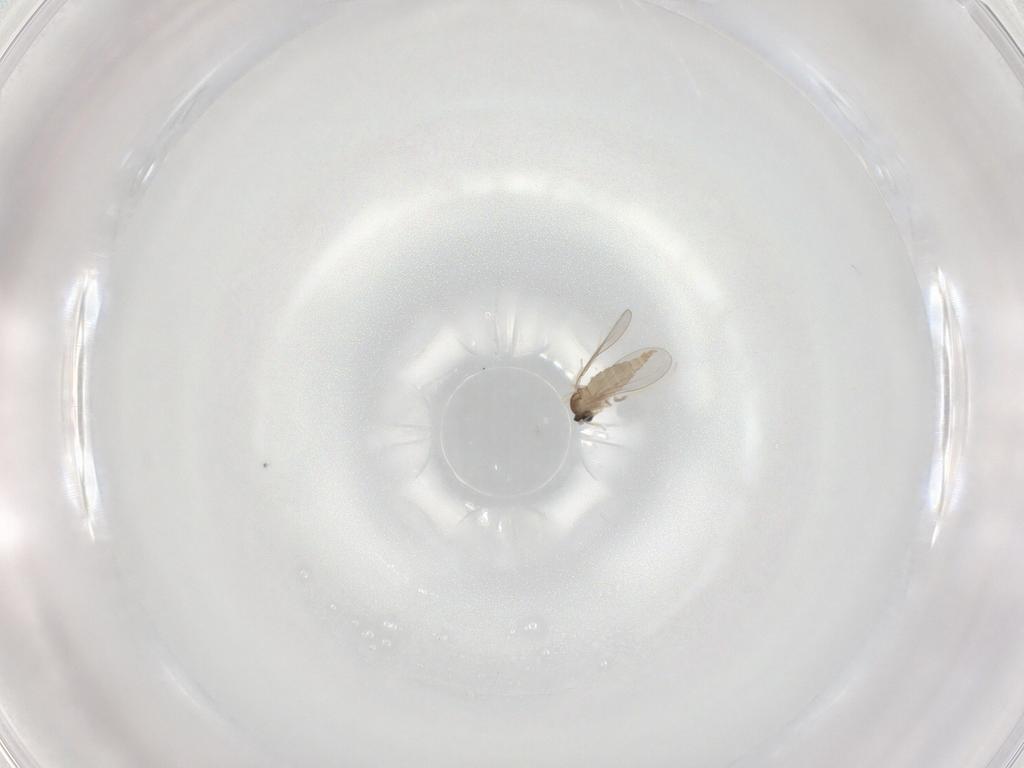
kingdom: Animalia
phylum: Arthropoda
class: Insecta
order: Diptera
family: Cecidomyiidae
